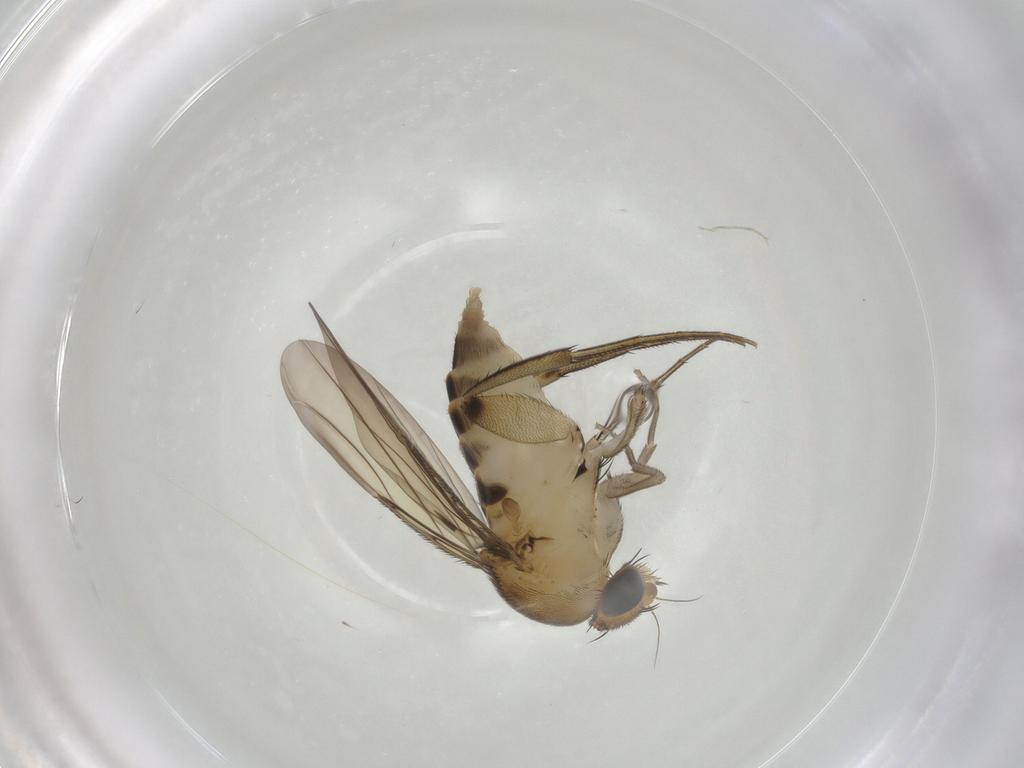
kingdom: Animalia
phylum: Arthropoda
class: Insecta
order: Diptera
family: Phoridae
